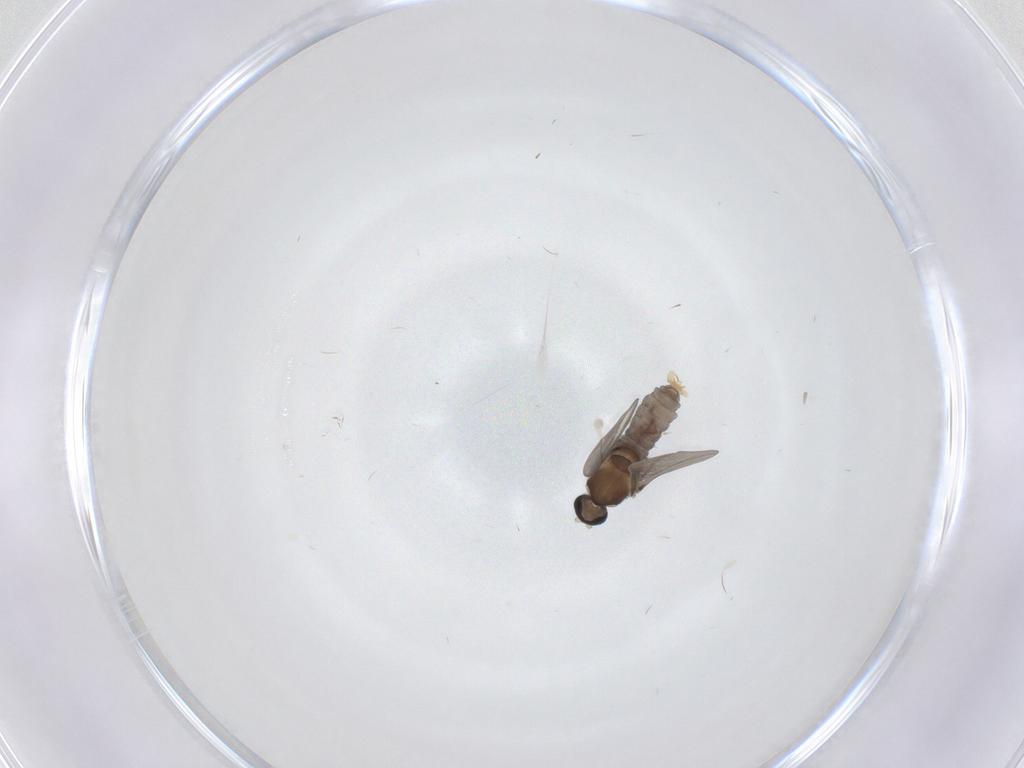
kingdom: Animalia
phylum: Arthropoda
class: Insecta
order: Diptera
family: Cecidomyiidae
